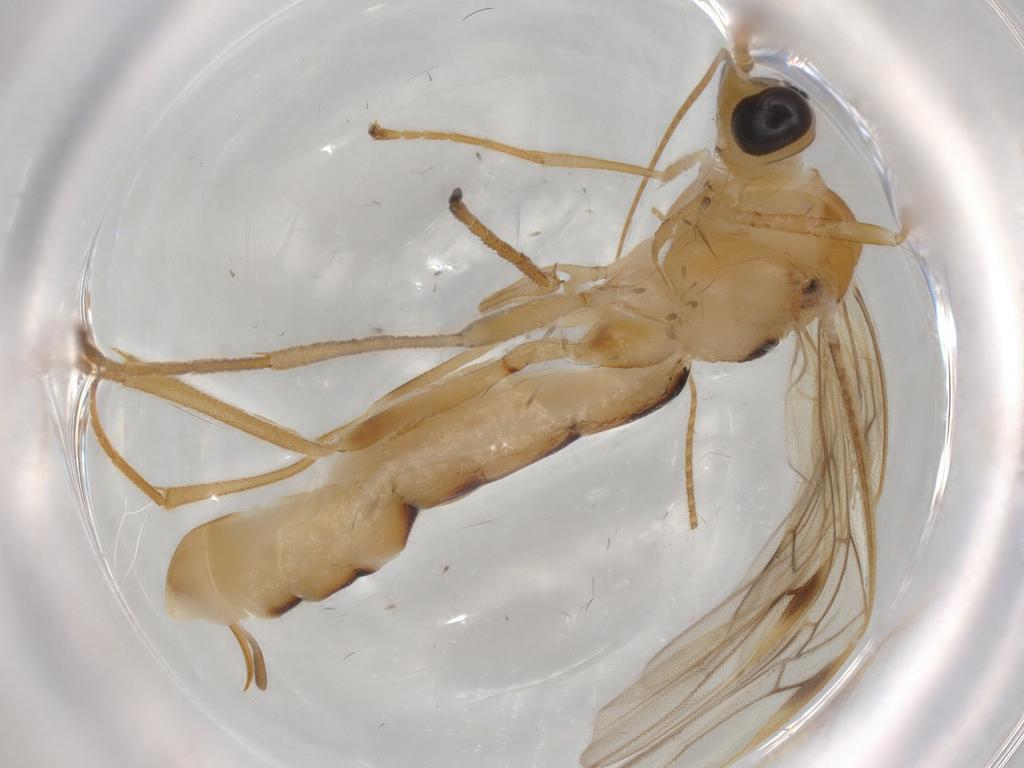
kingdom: Animalia
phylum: Arthropoda
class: Insecta
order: Hymenoptera
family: Braconidae
